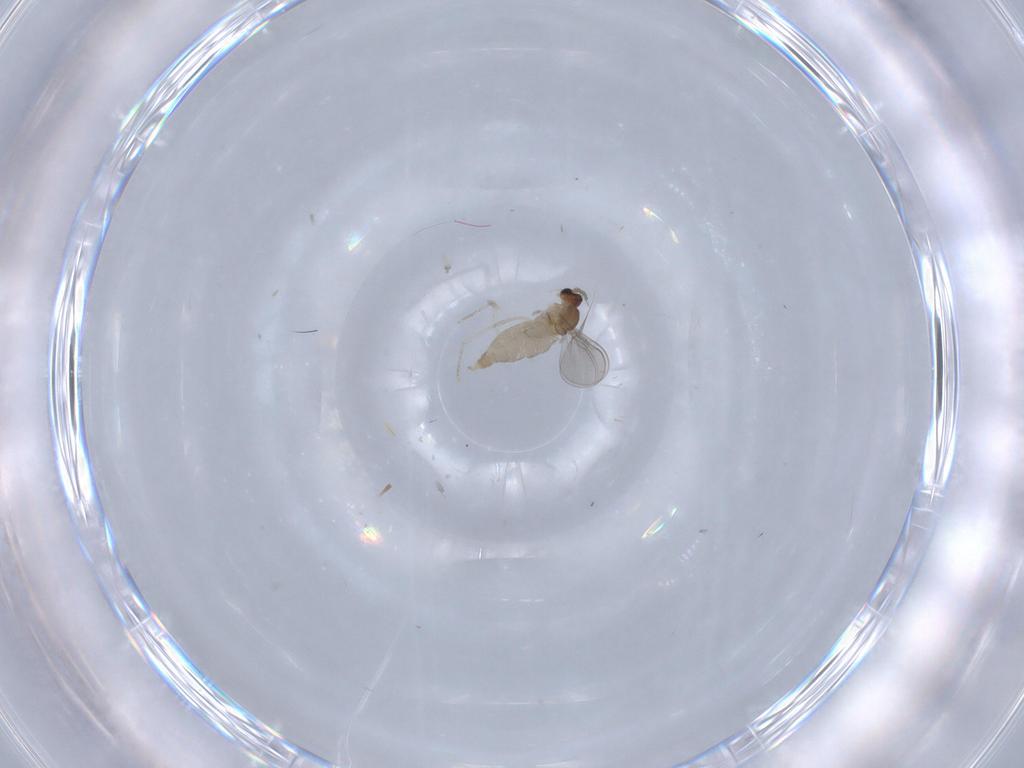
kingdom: Animalia
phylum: Arthropoda
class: Insecta
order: Diptera
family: Cecidomyiidae
